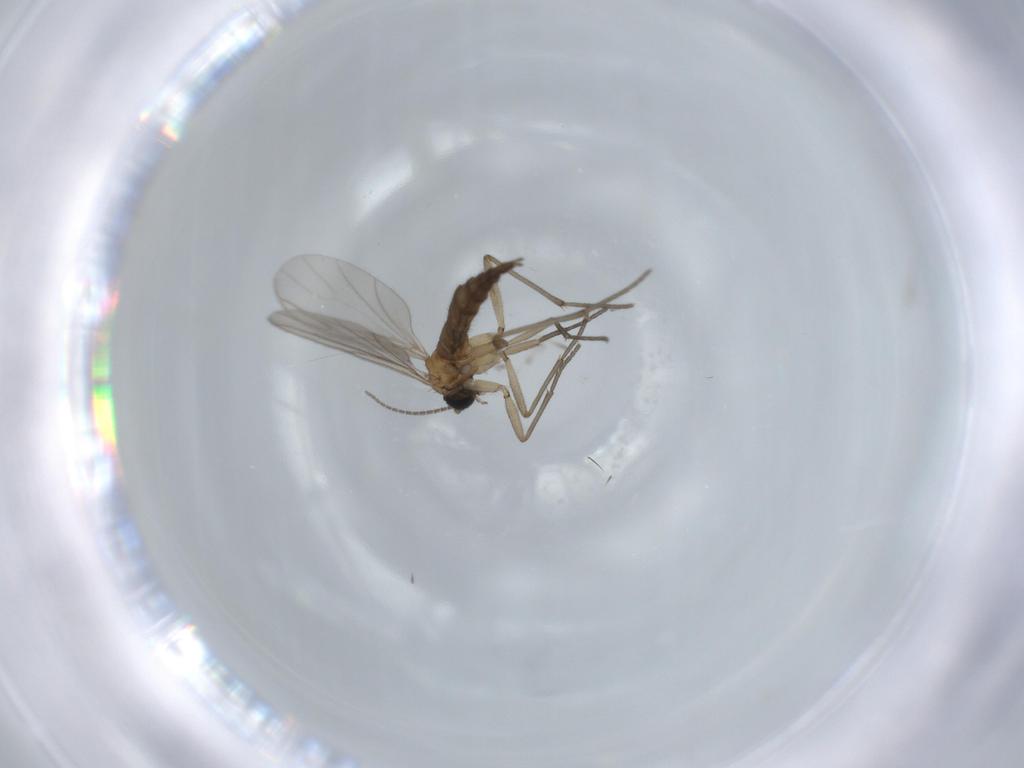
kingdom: Animalia
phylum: Arthropoda
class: Insecta
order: Diptera
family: Sciaridae
